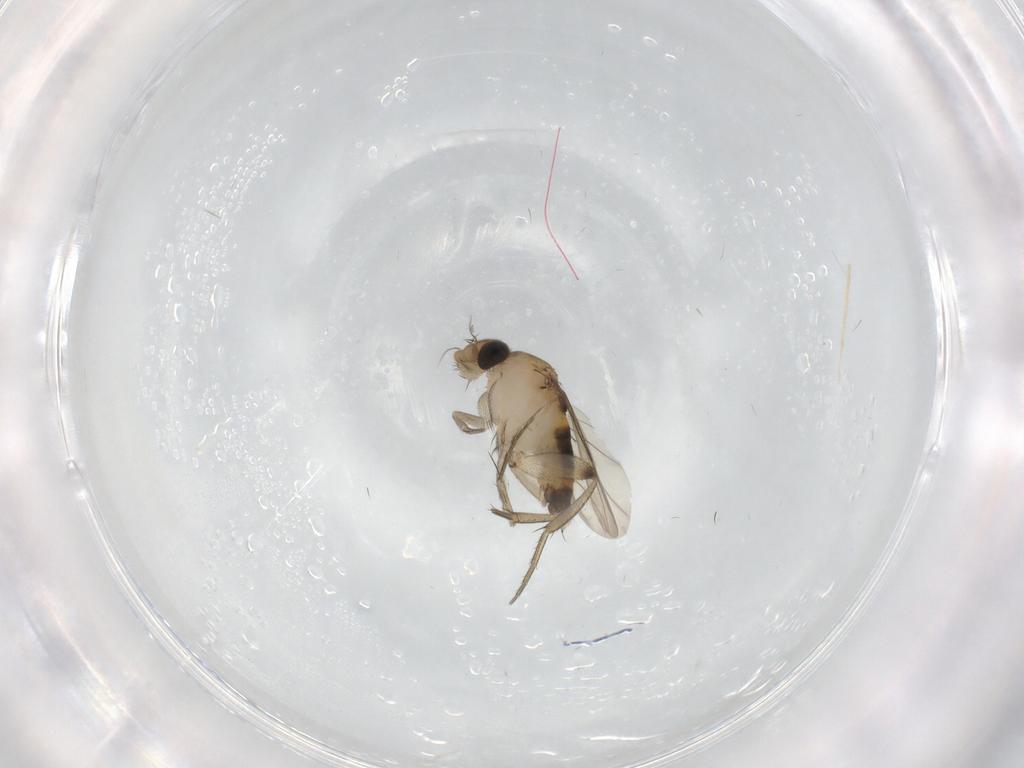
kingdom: Animalia
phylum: Arthropoda
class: Insecta
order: Diptera
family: Phoridae
